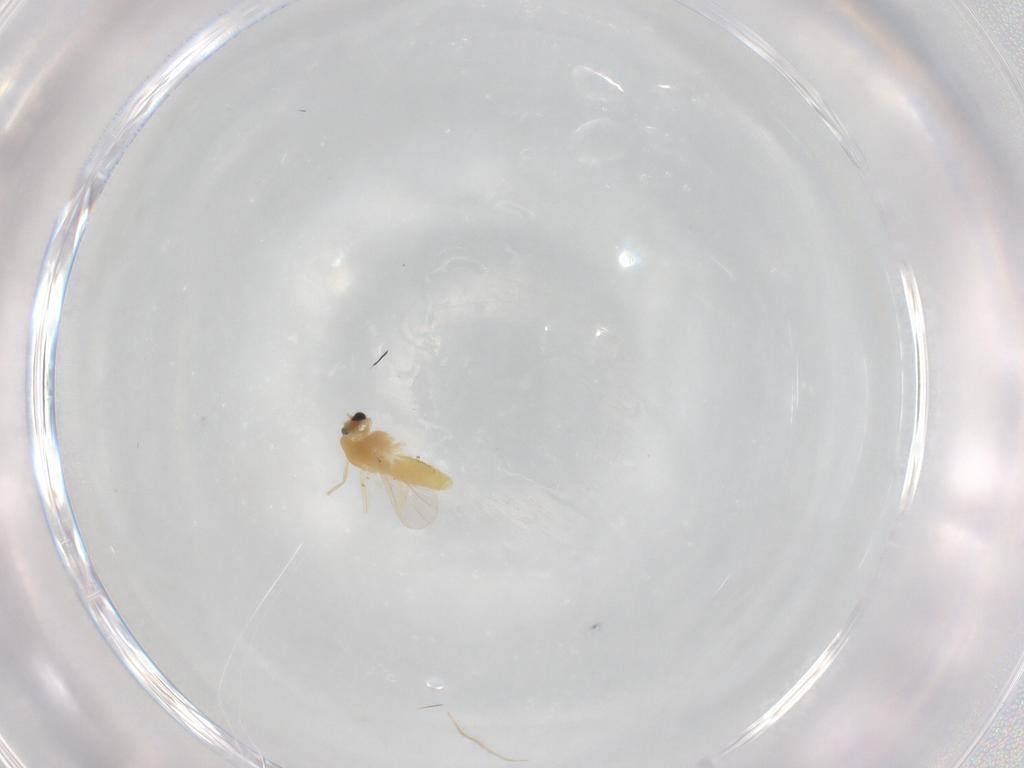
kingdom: Animalia
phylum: Arthropoda
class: Insecta
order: Diptera
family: Chironomidae
